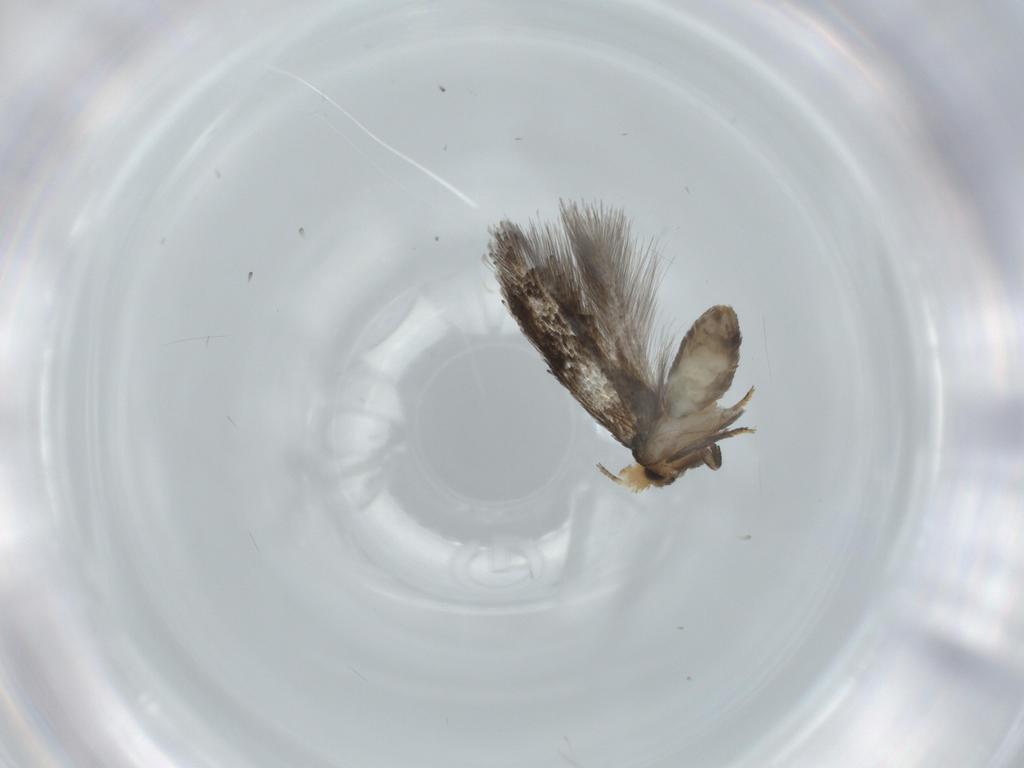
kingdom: Animalia
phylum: Arthropoda
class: Insecta
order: Lepidoptera
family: Nepticulidae
